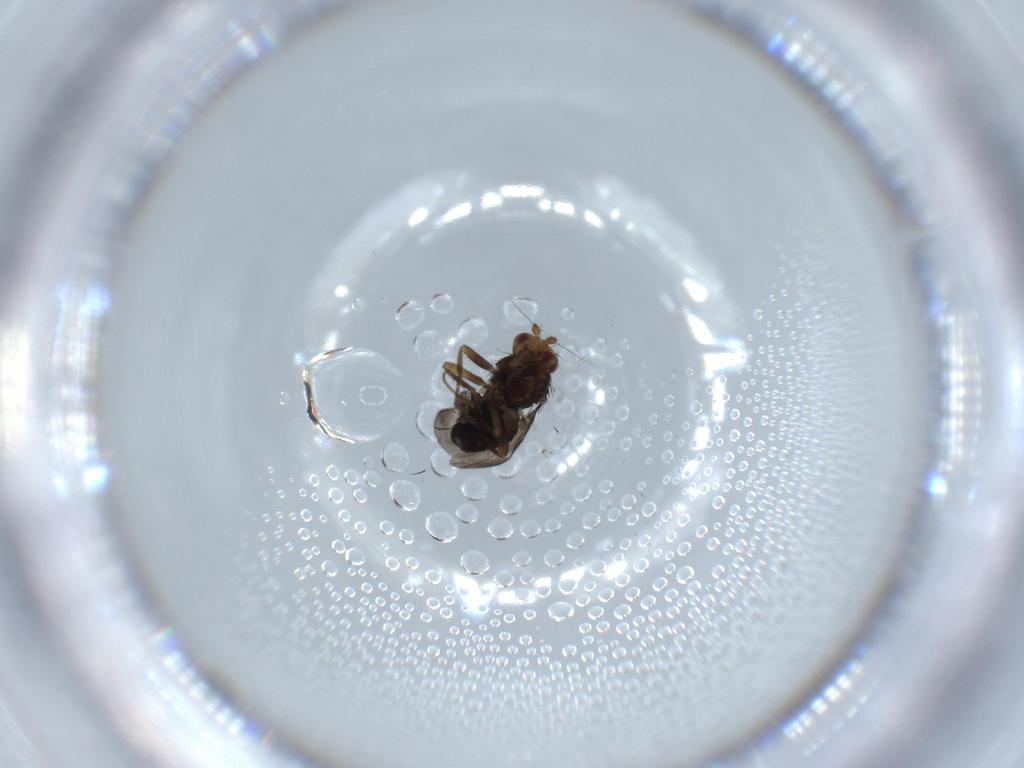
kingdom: Animalia
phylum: Arthropoda
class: Insecta
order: Diptera
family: Sphaeroceridae
